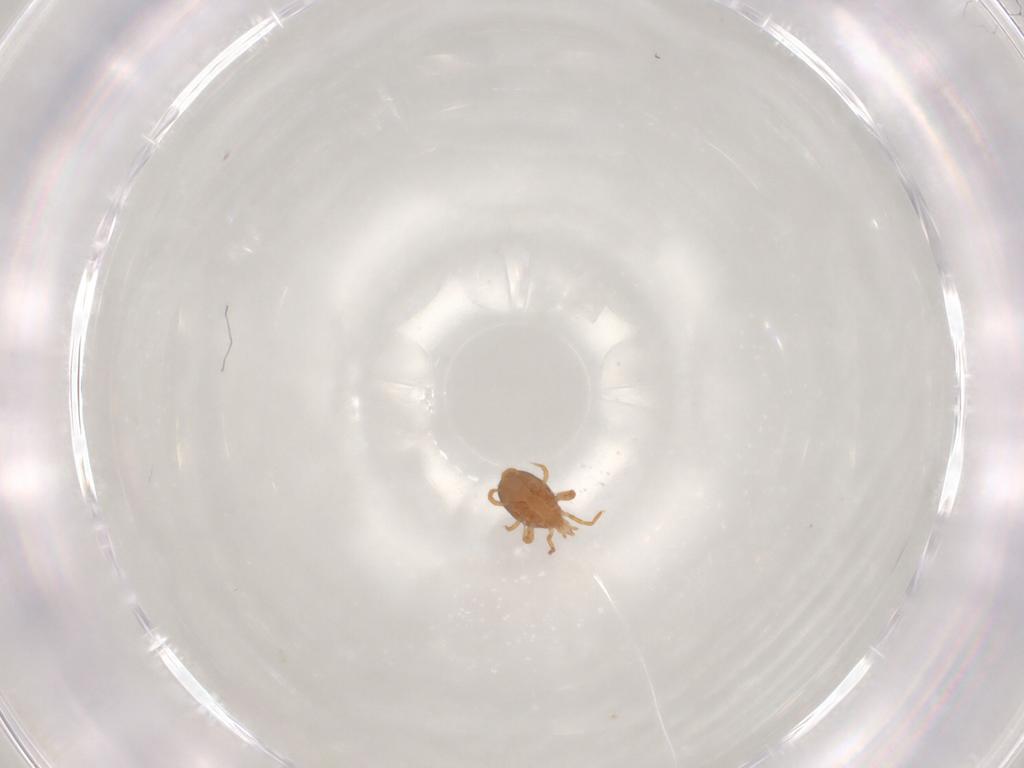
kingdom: Animalia
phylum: Arthropoda
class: Arachnida
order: Mesostigmata
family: Parasitidae
